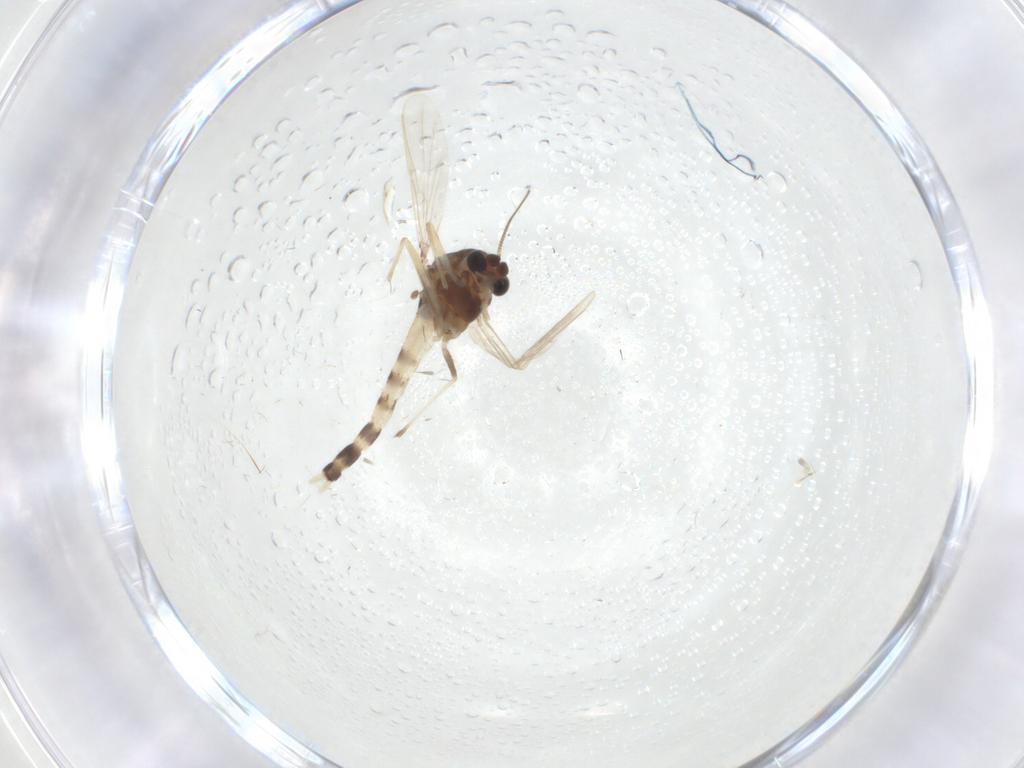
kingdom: Animalia
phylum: Arthropoda
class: Insecta
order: Diptera
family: Chironomidae
